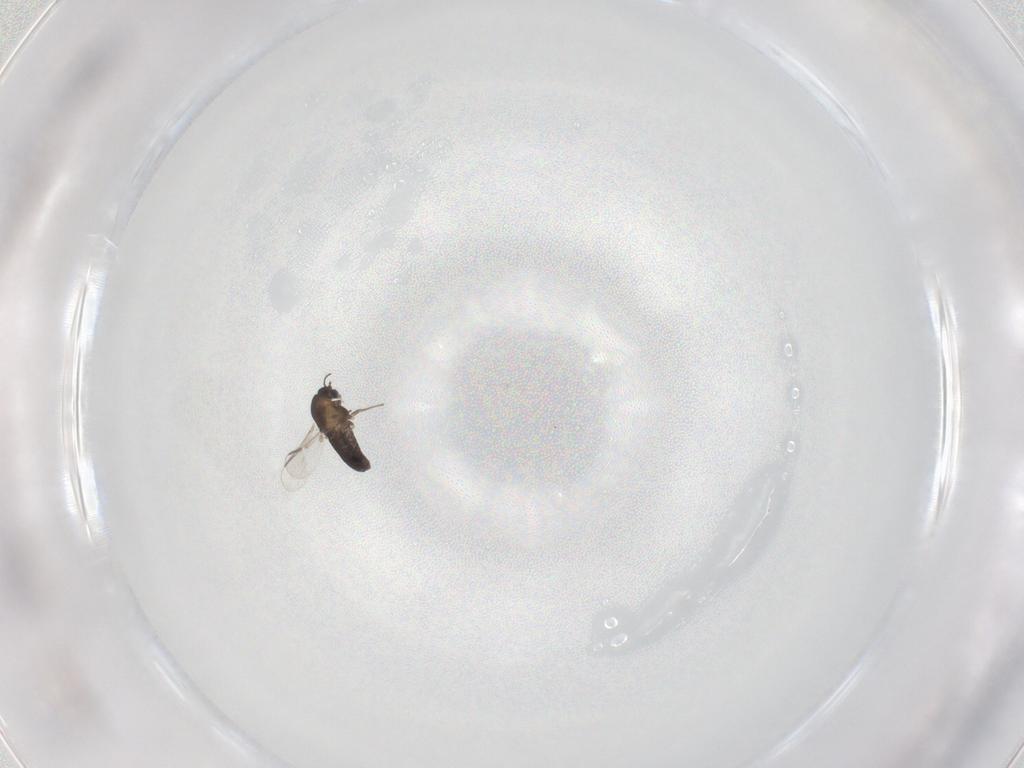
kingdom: Animalia
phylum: Arthropoda
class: Insecta
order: Diptera
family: Chironomidae
